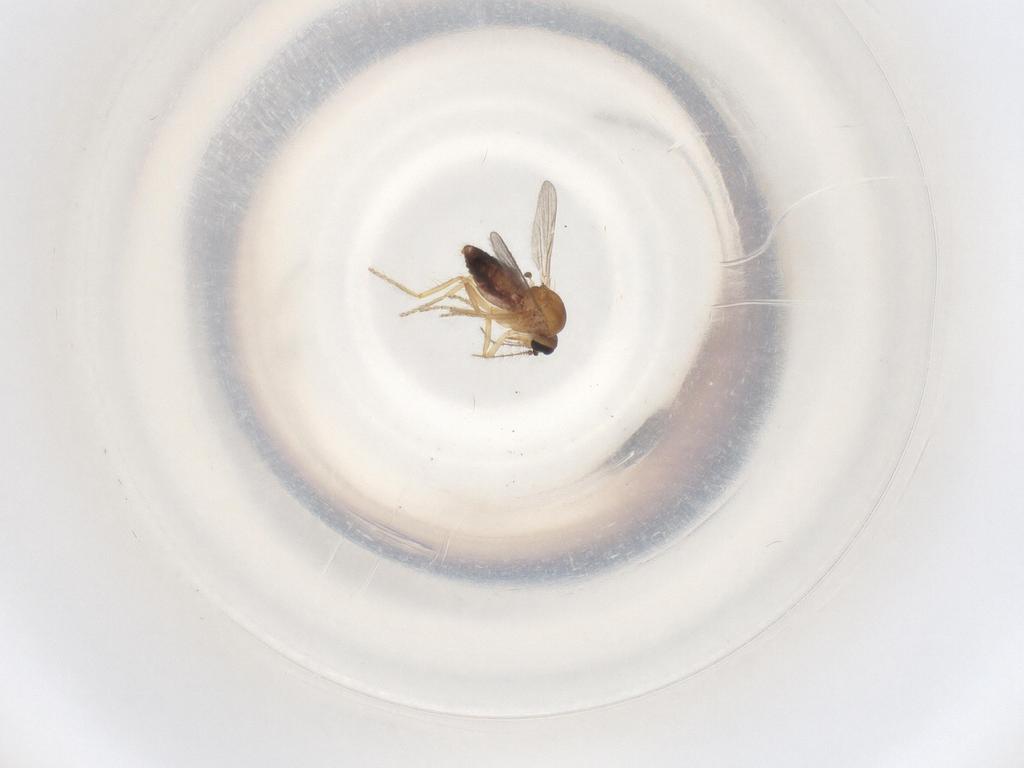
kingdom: Animalia
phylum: Arthropoda
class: Insecta
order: Diptera
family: Ceratopogonidae
